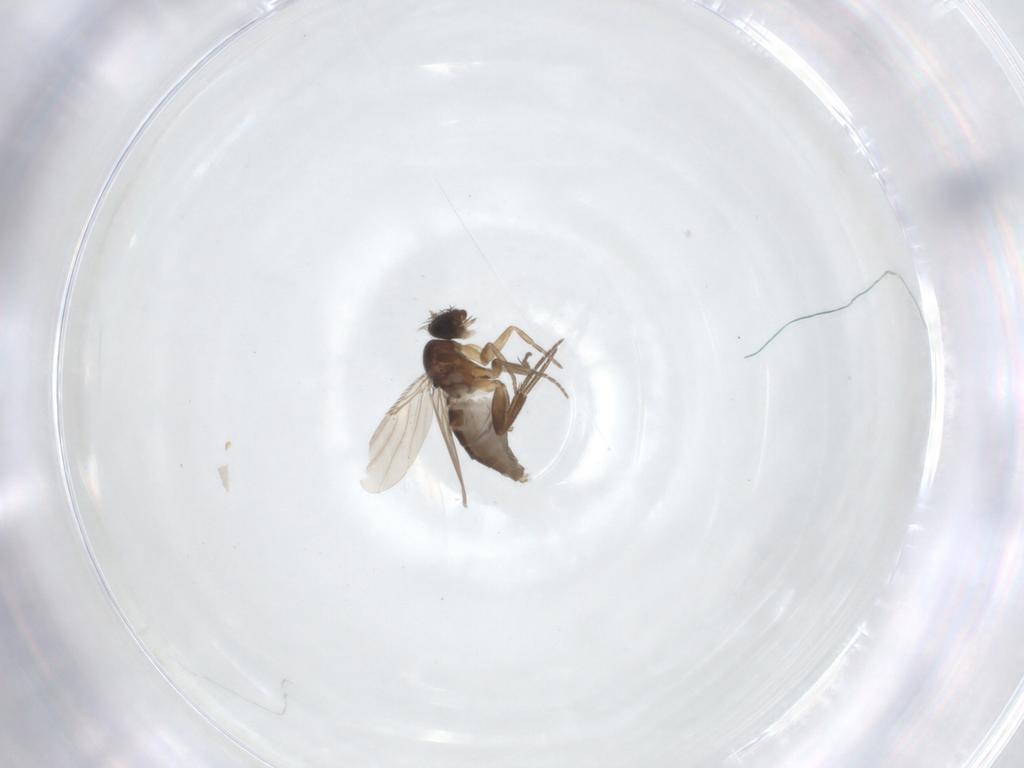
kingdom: Animalia
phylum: Arthropoda
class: Insecta
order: Diptera
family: Phoridae
